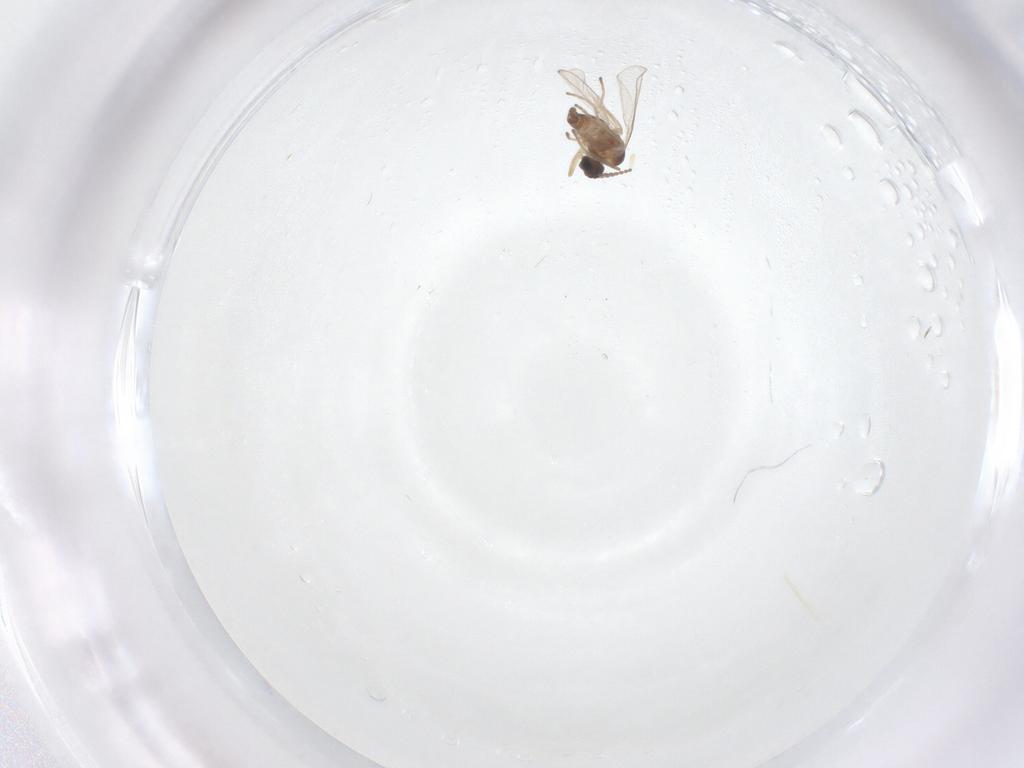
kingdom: Animalia
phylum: Arthropoda
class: Insecta
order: Diptera
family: Cecidomyiidae
